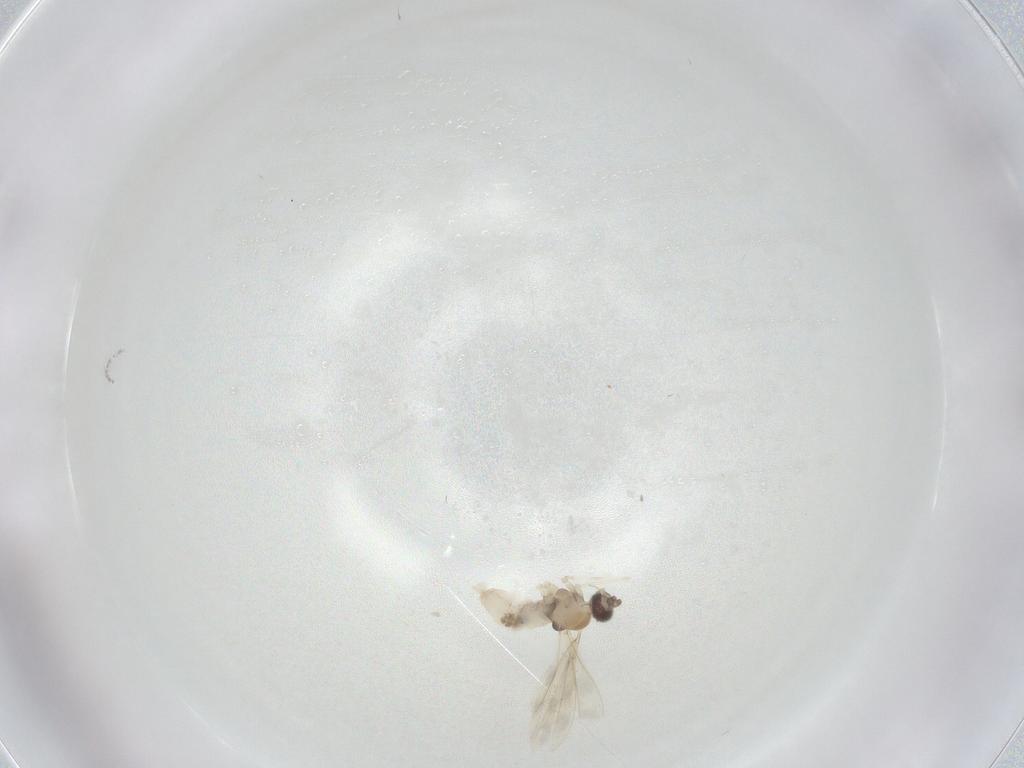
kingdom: Animalia
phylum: Arthropoda
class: Insecta
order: Diptera
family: Cecidomyiidae
